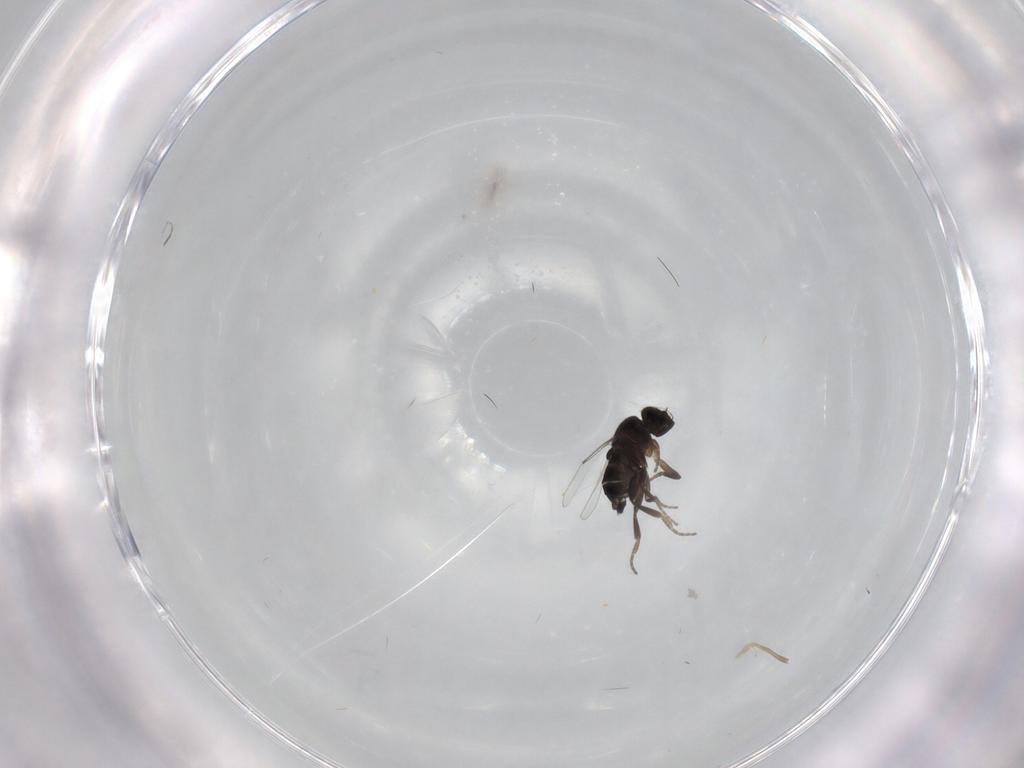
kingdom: Animalia
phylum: Arthropoda
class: Insecta
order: Diptera
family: Phoridae
